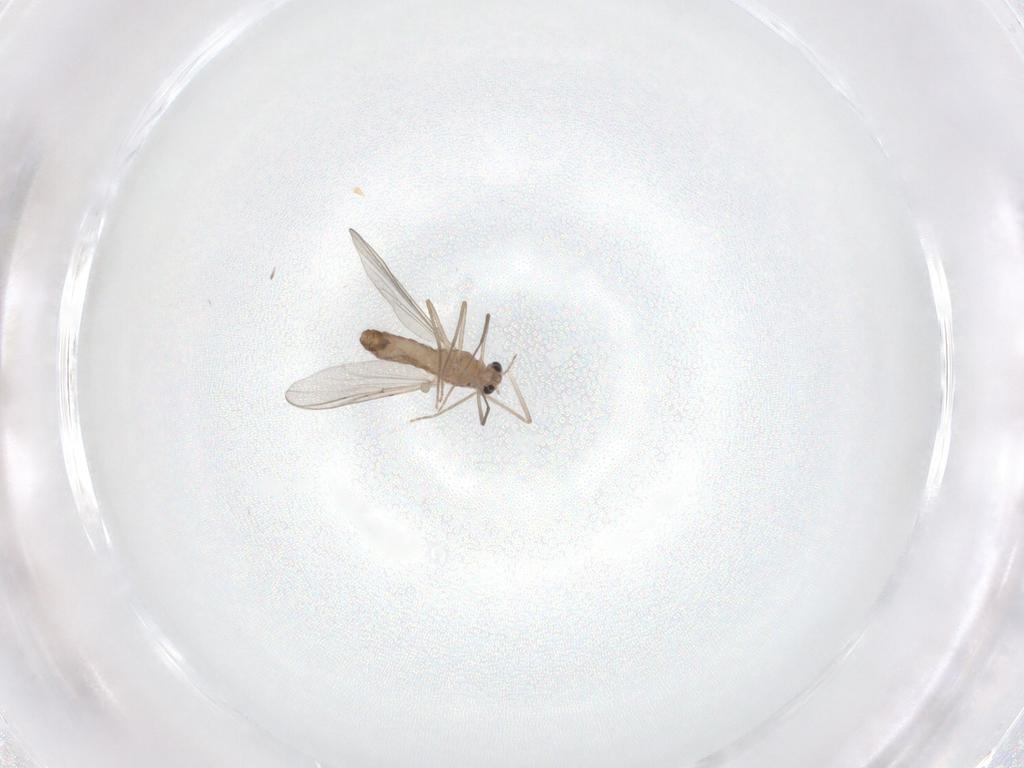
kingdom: Animalia
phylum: Arthropoda
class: Insecta
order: Diptera
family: Chironomidae
